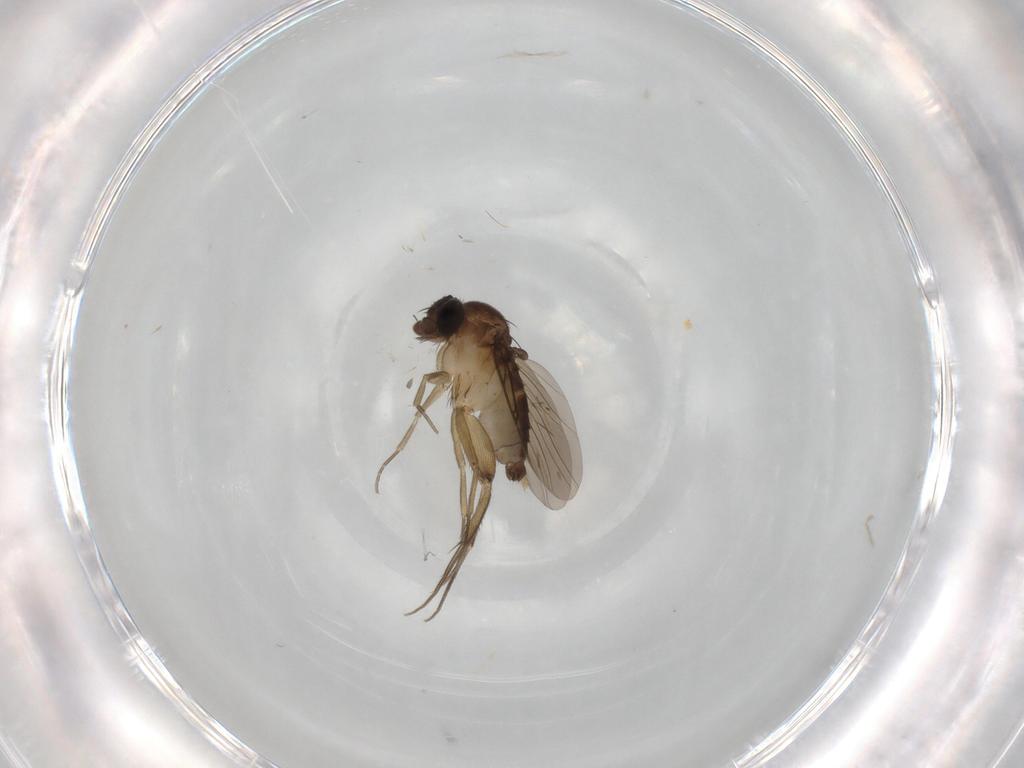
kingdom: Animalia
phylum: Arthropoda
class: Insecta
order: Diptera
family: Phoridae
